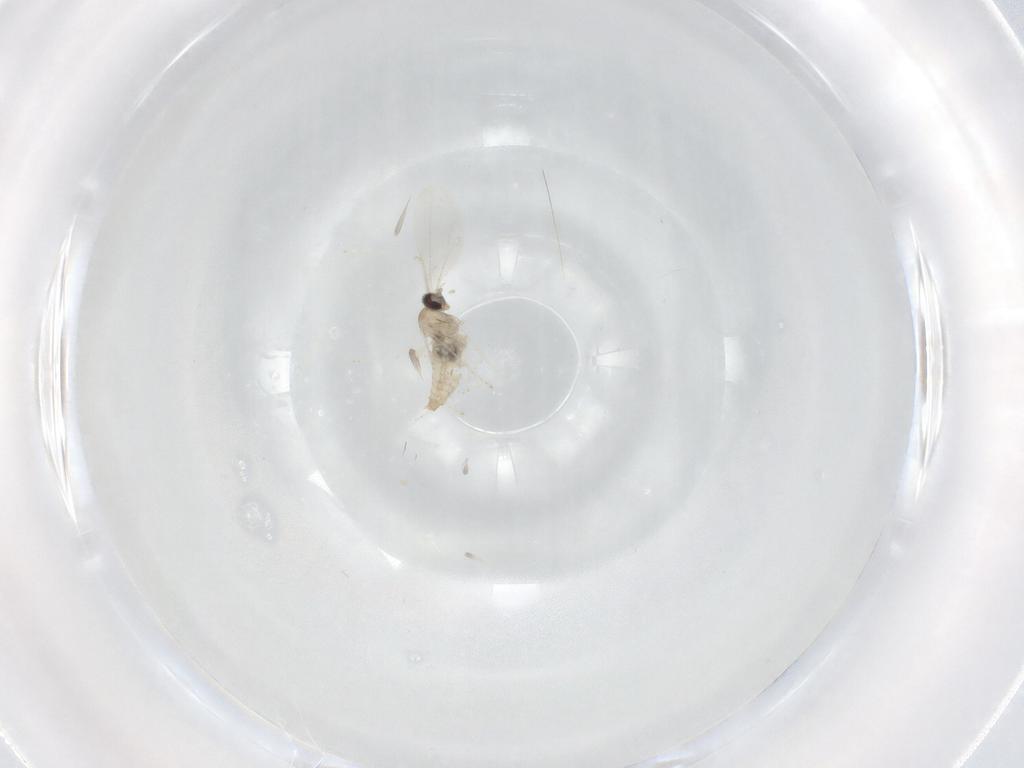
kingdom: Animalia
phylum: Arthropoda
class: Insecta
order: Diptera
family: Cecidomyiidae
